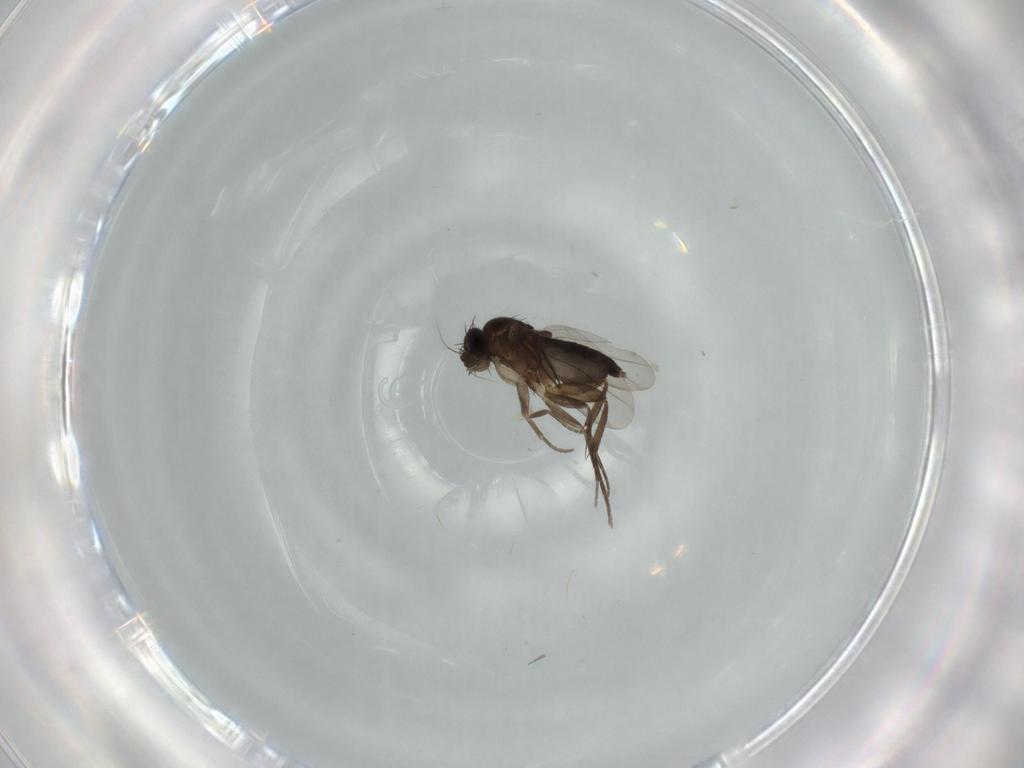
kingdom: Animalia
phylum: Arthropoda
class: Insecta
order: Diptera
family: Phoridae
